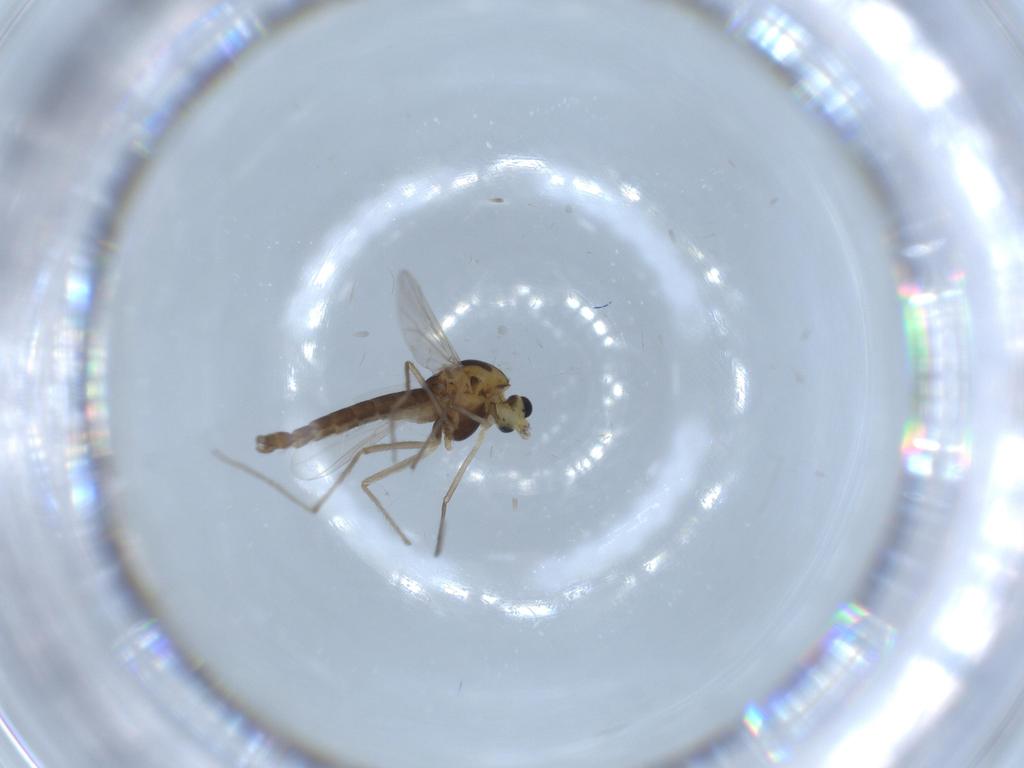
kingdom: Animalia
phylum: Arthropoda
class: Insecta
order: Diptera
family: Chironomidae
